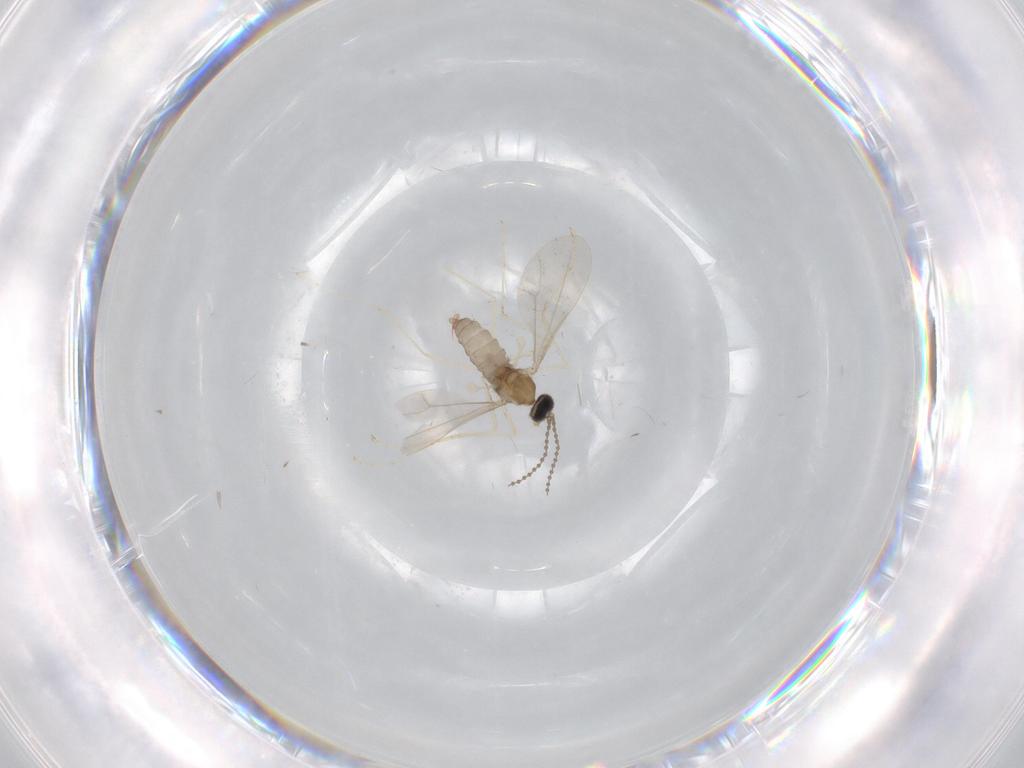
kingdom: Animalia
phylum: Arthropoda
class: Insecta
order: Diptera
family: Cecidomyiidae
